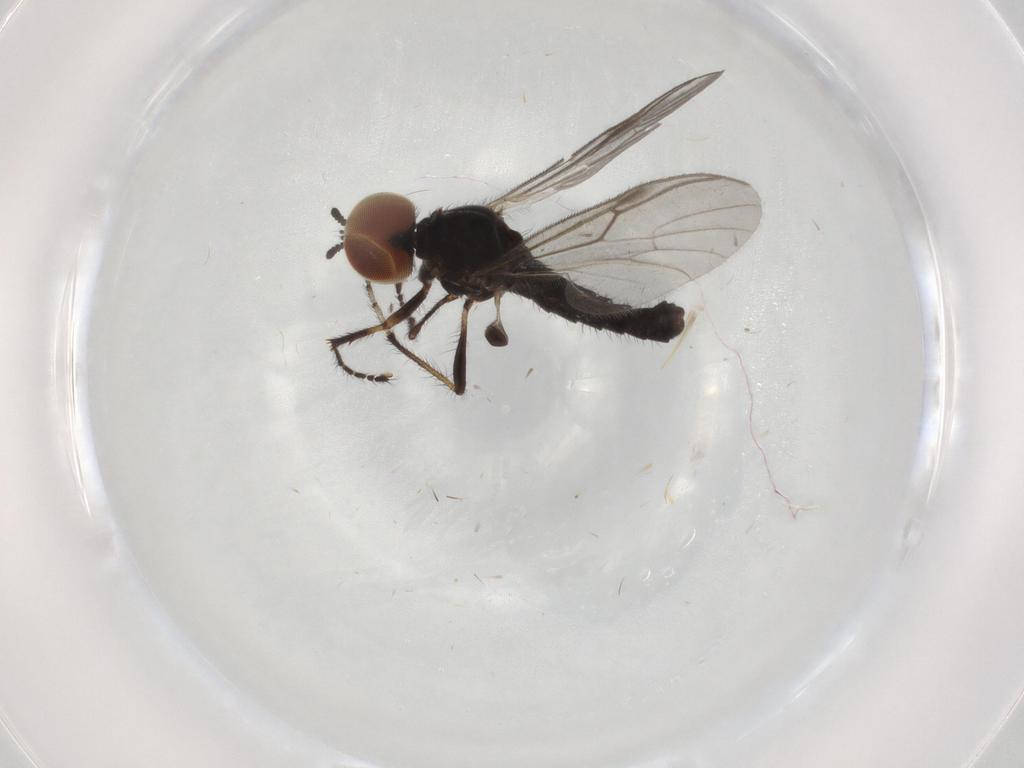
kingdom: Animalia
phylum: Arthropoda
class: Insecta
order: Diptera
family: Bibionidae
